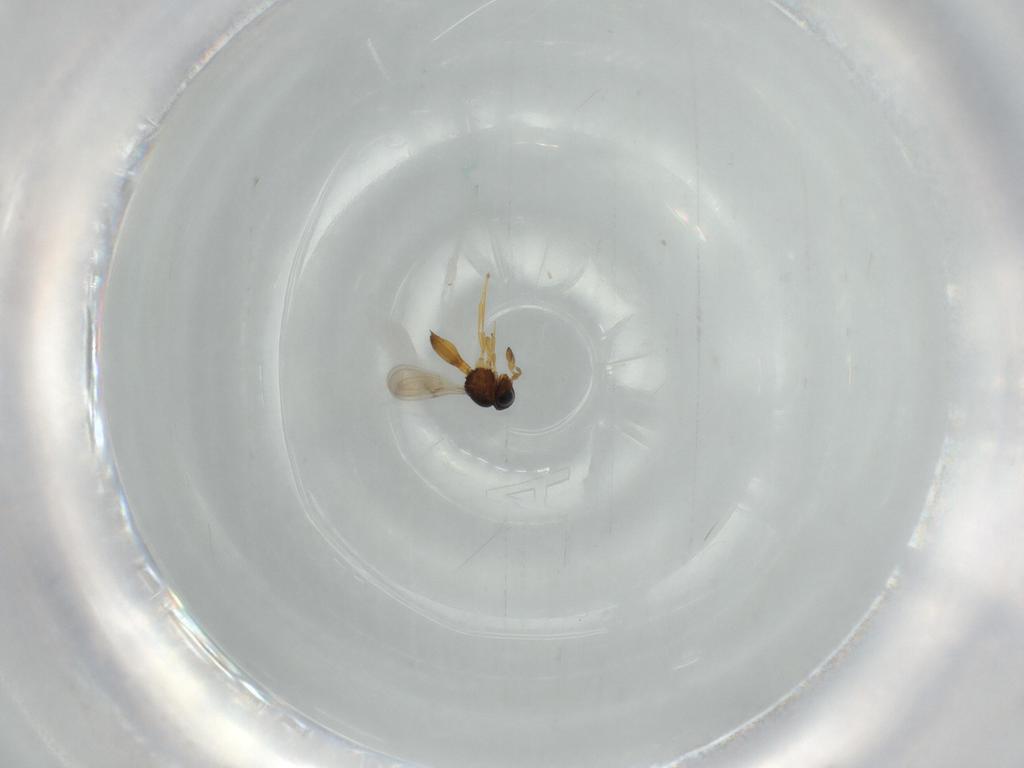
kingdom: Animalia
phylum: Arthropoda
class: Insecta
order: Hymenoptera
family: Scelionidae
